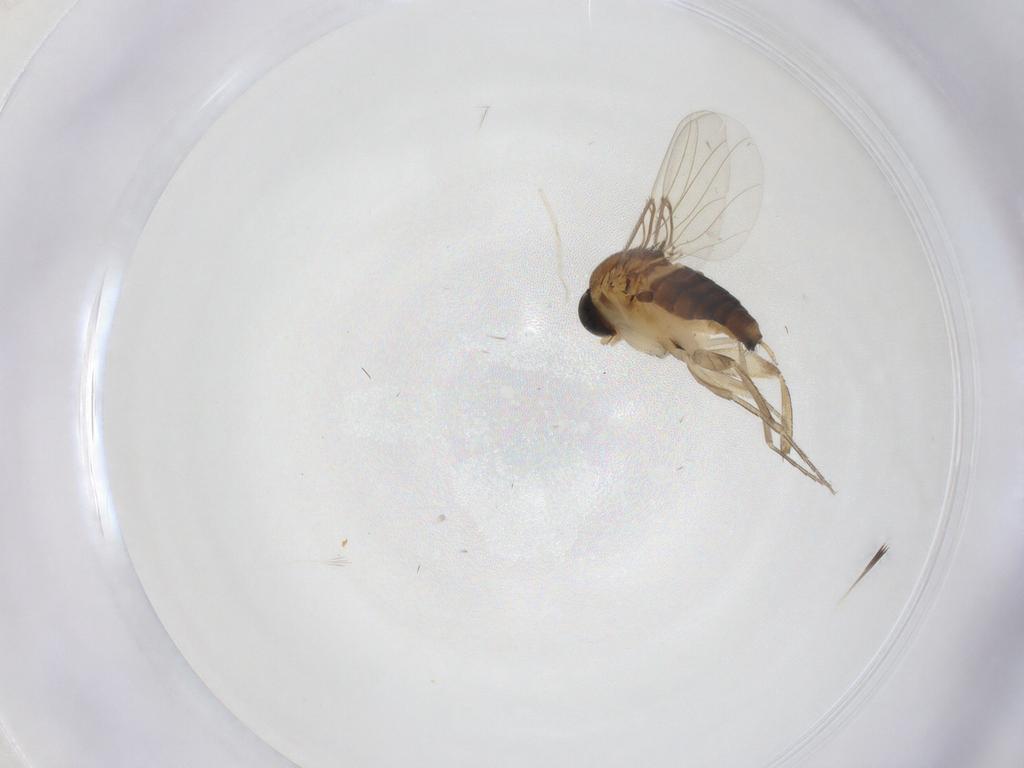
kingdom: Animalia
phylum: Arthropoda
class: Insecta
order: Diptera
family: Phoridae
